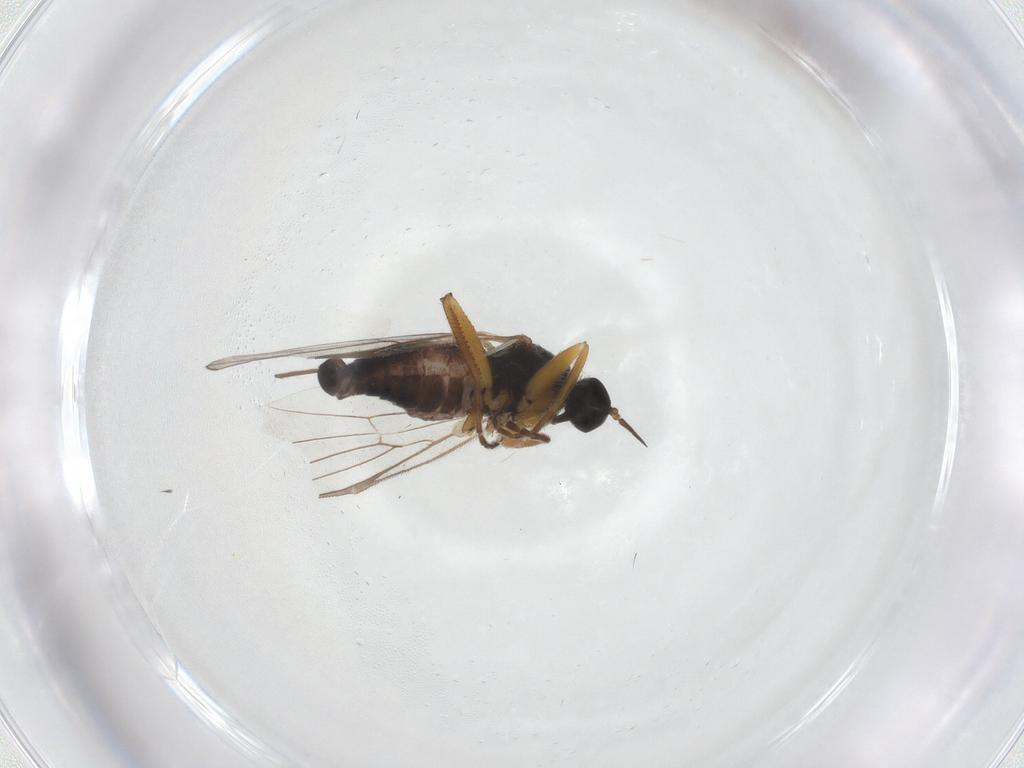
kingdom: Animalia
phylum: Arthropoda
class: Insecta
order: Diptera
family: Hybotidae
